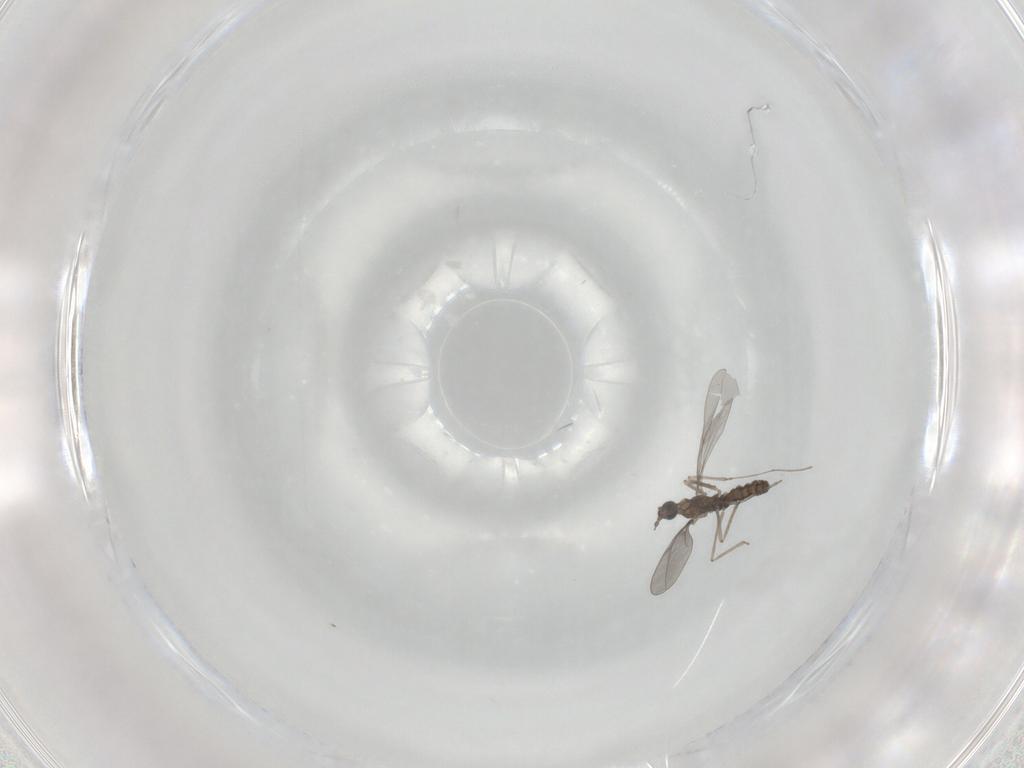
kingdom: Animalia
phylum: Arthropoda
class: Insecta
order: Diptera
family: Cecidomyiidae
